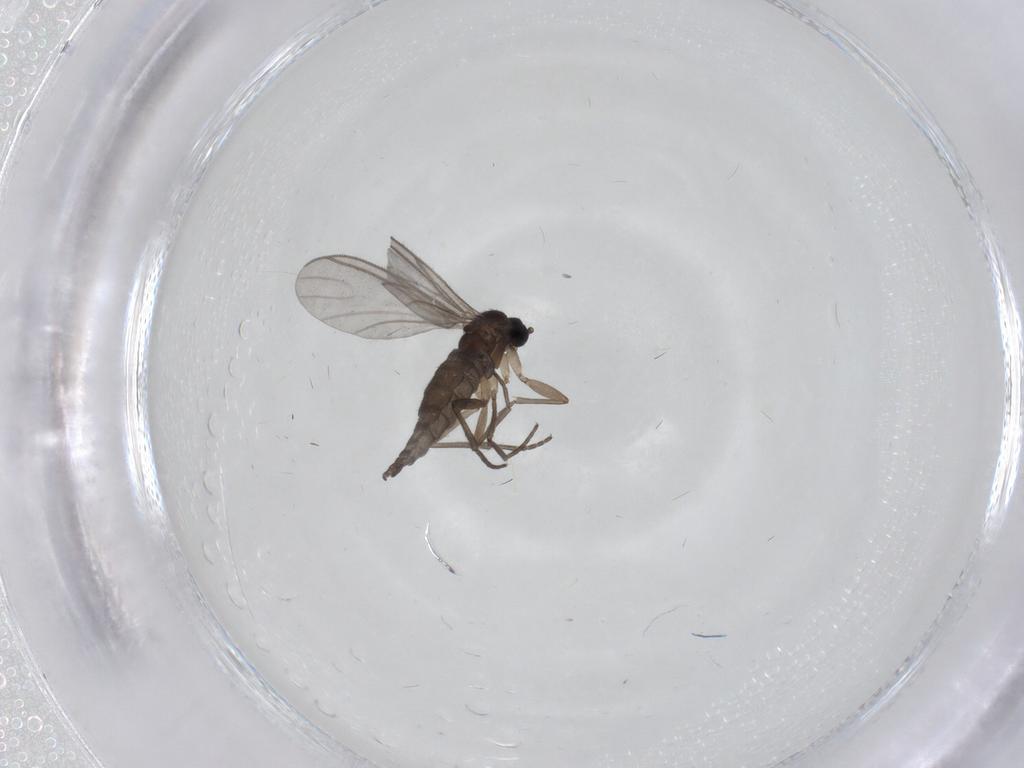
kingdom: Animalia
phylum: Arthropoda
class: Insecta
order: Diptera
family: Sciaridae
